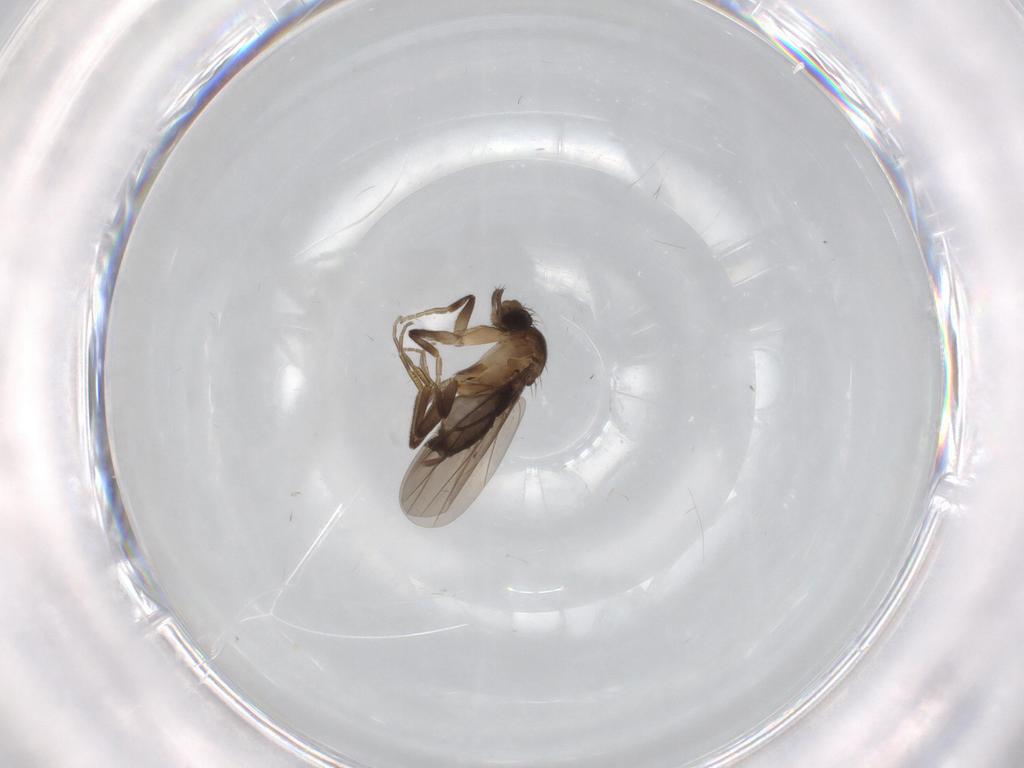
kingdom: Animalia
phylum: Arthropoda
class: Insecta
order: Diptera
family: Phoridae
